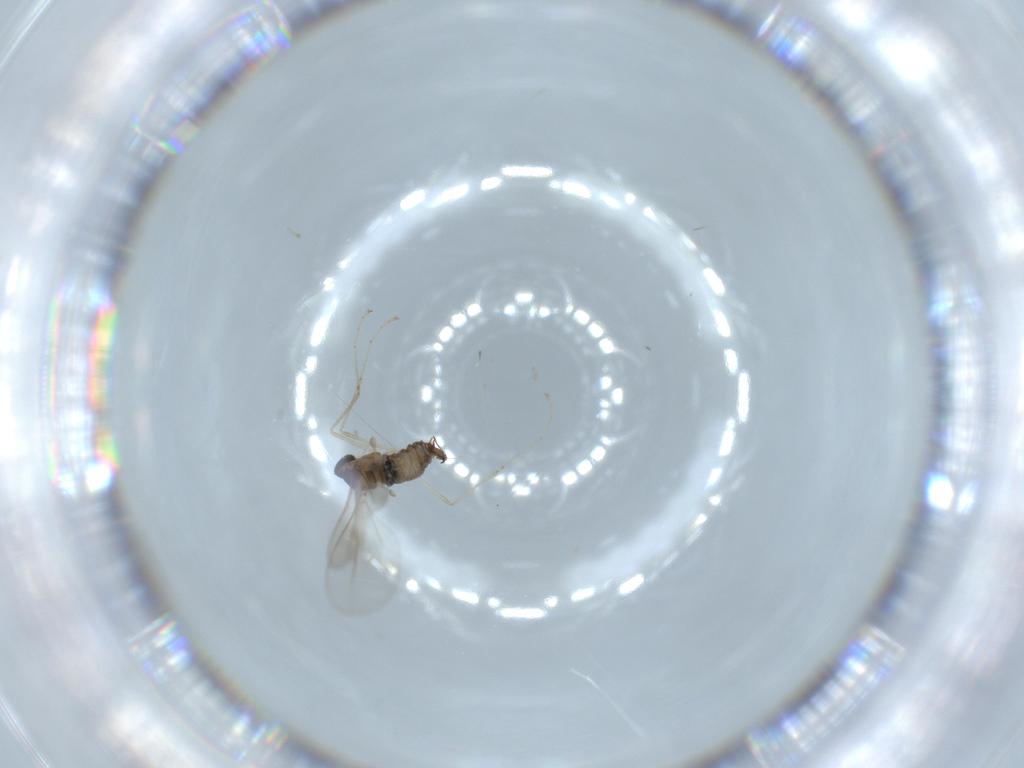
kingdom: Animalia
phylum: Arthropoda
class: Insecta
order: Diptera
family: Cecidomyiidae
